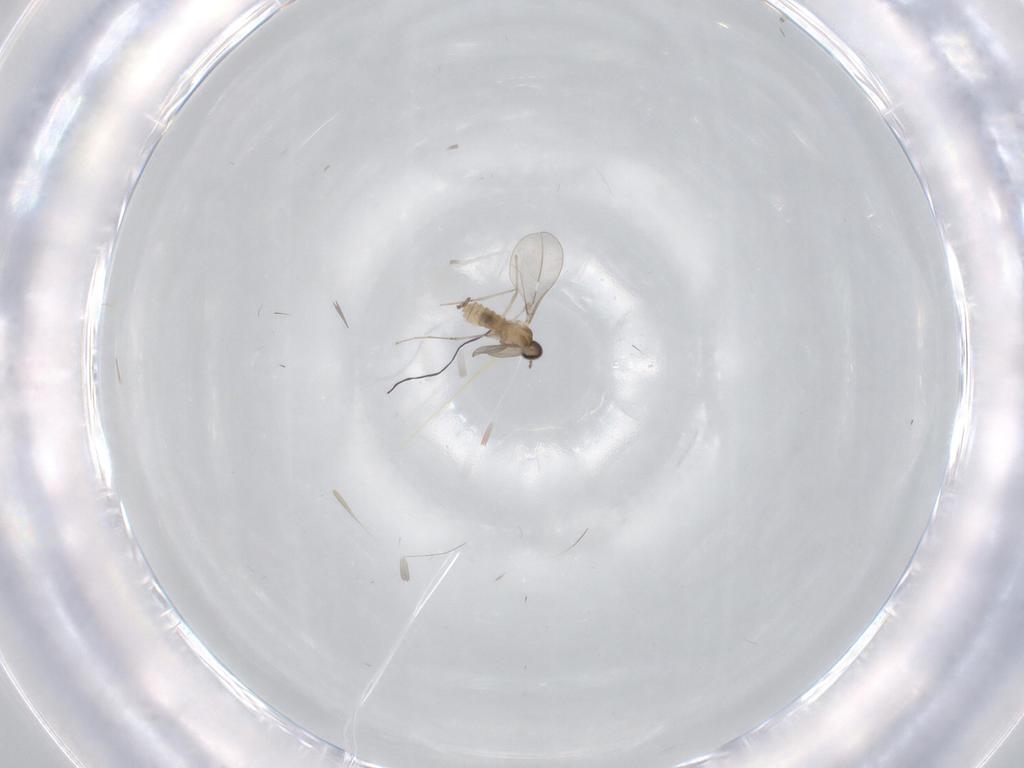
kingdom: Animalia
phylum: Arthropoda
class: Insecta
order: Diptera
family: Cecidomyiidae
